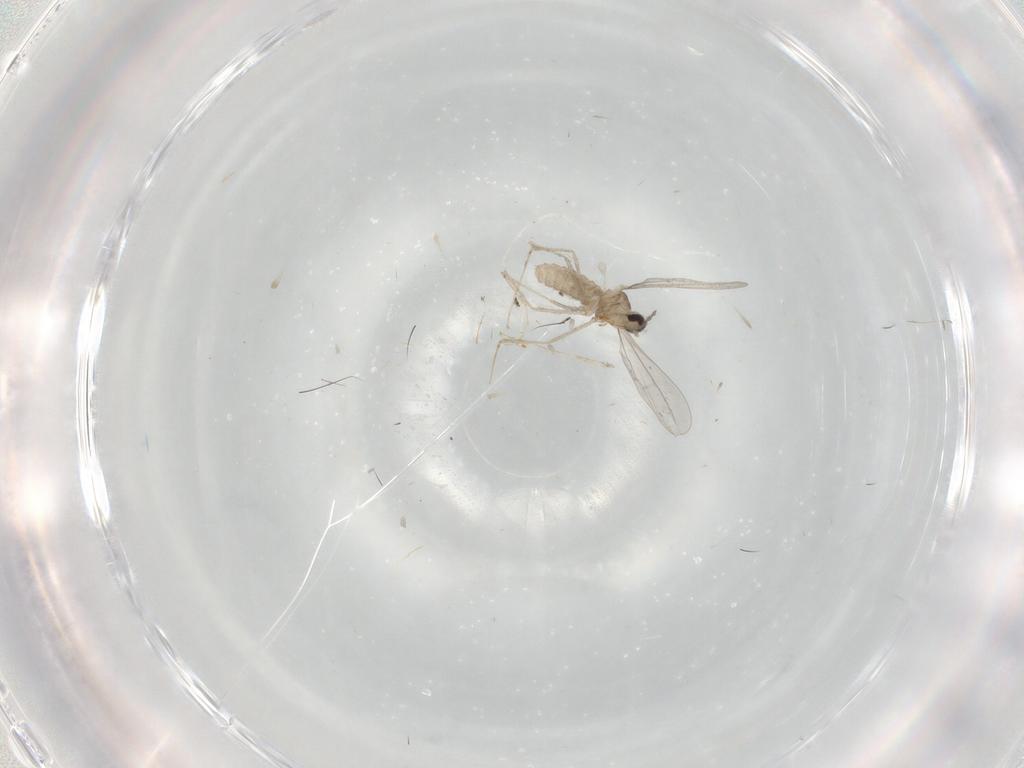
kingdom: Animalia
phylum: Arthropoda
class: Insecta
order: Diptera
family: Cecidomyiidae
